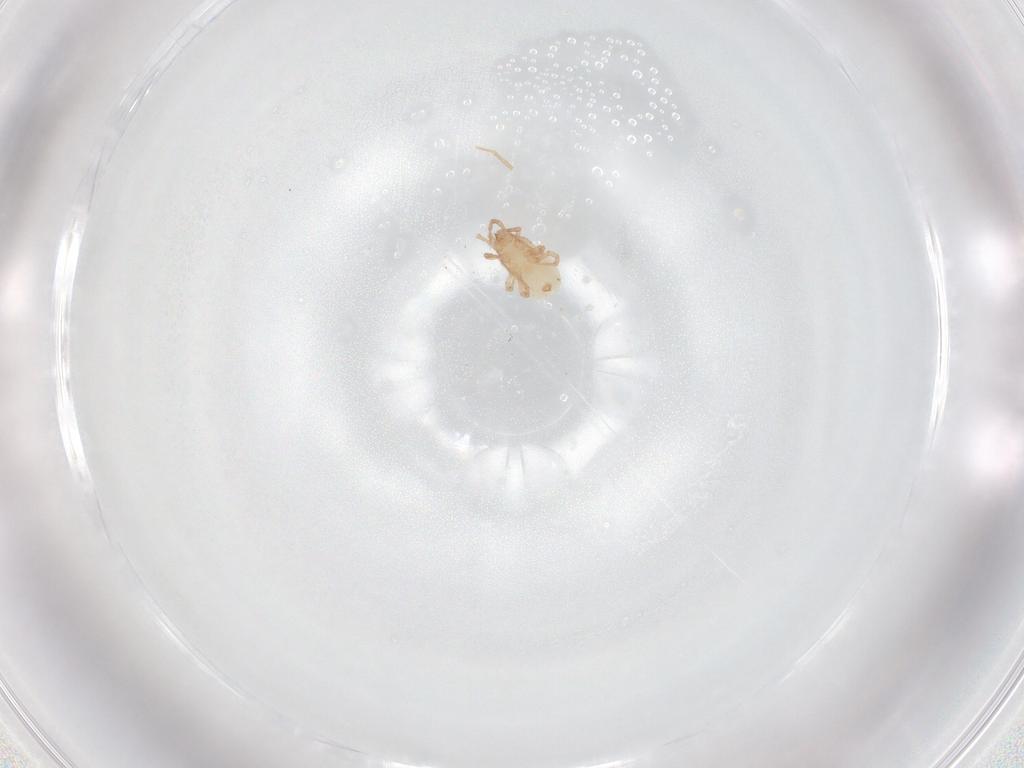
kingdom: Animalia
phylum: Arthropoda
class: Arachnida
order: Mesostigmata
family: Ascidae
